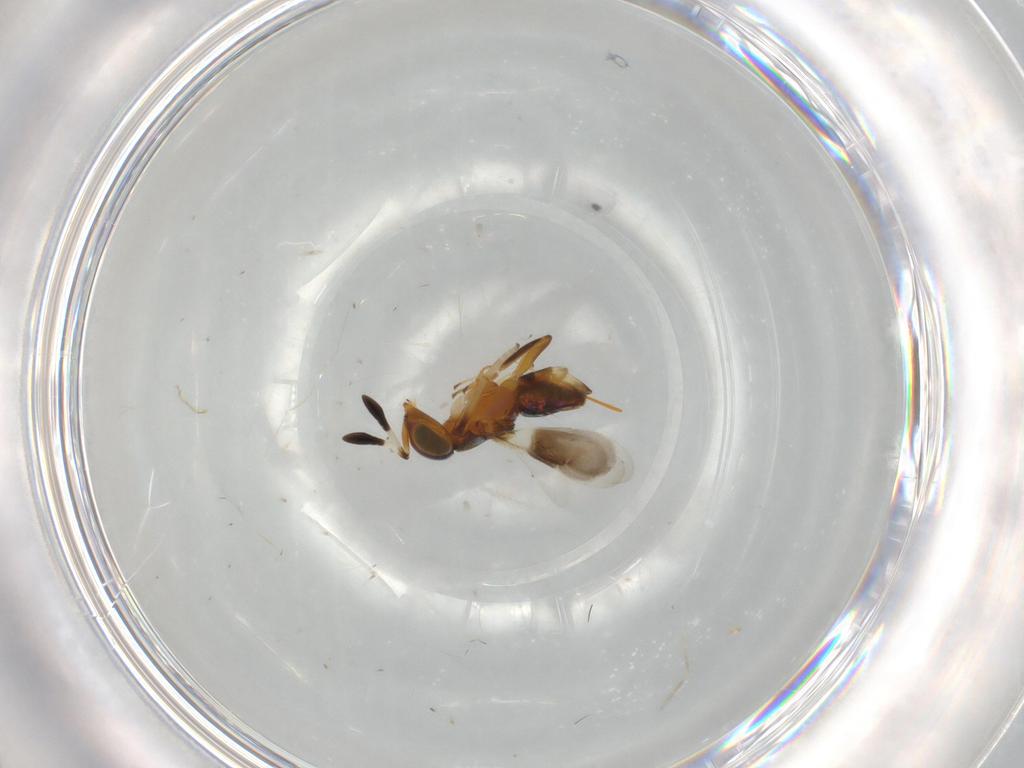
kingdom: Animalia
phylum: Arthropoda
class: Insecta
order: Hymenoptera
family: Encyrtidae
